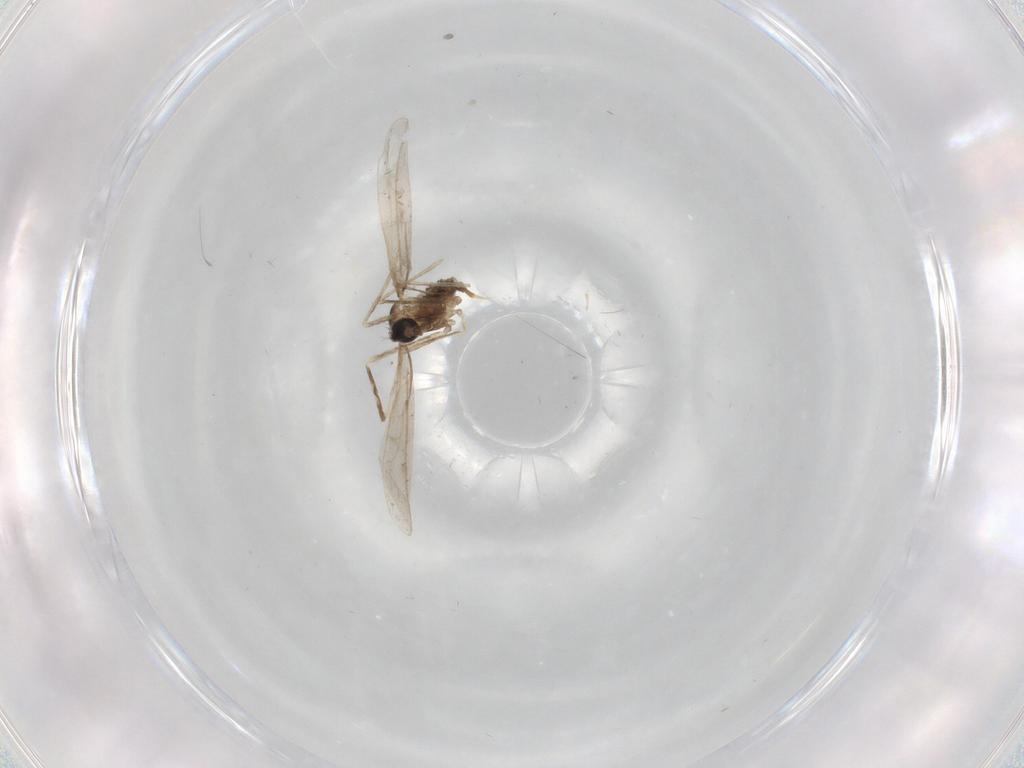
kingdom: Animalia
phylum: Arthropoda
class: Insecta
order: Diptera
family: Cecidomyiidae
